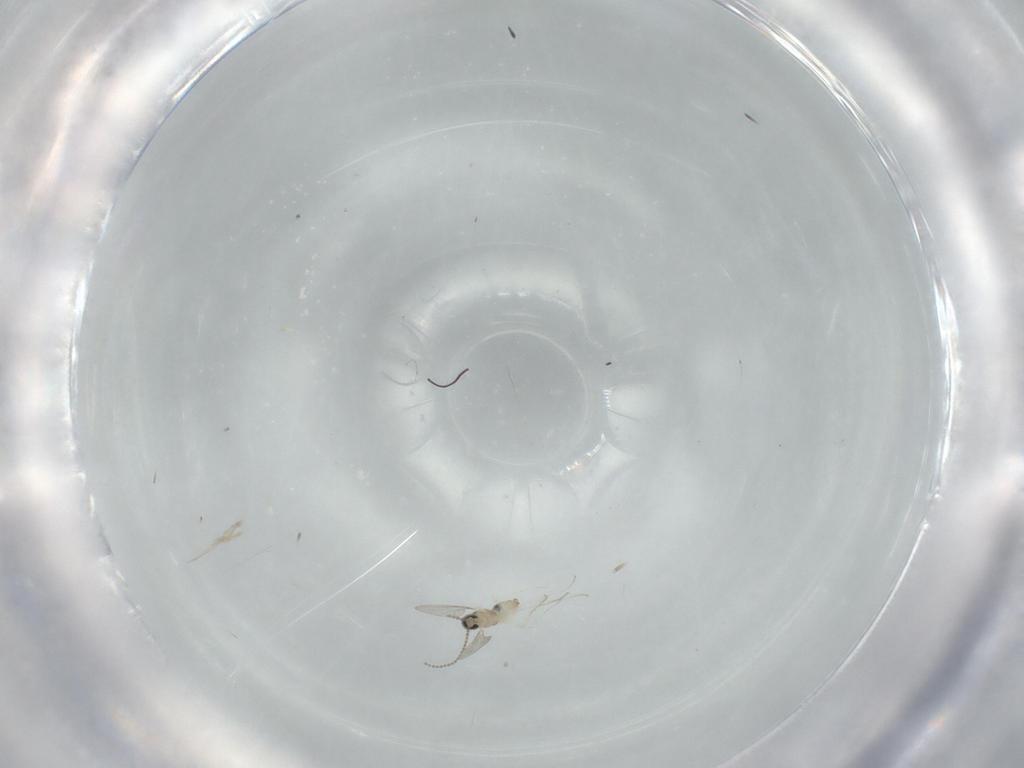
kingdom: Animalia
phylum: Arthropoda
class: Insecta
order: Diptera
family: Cecidomyiidae
